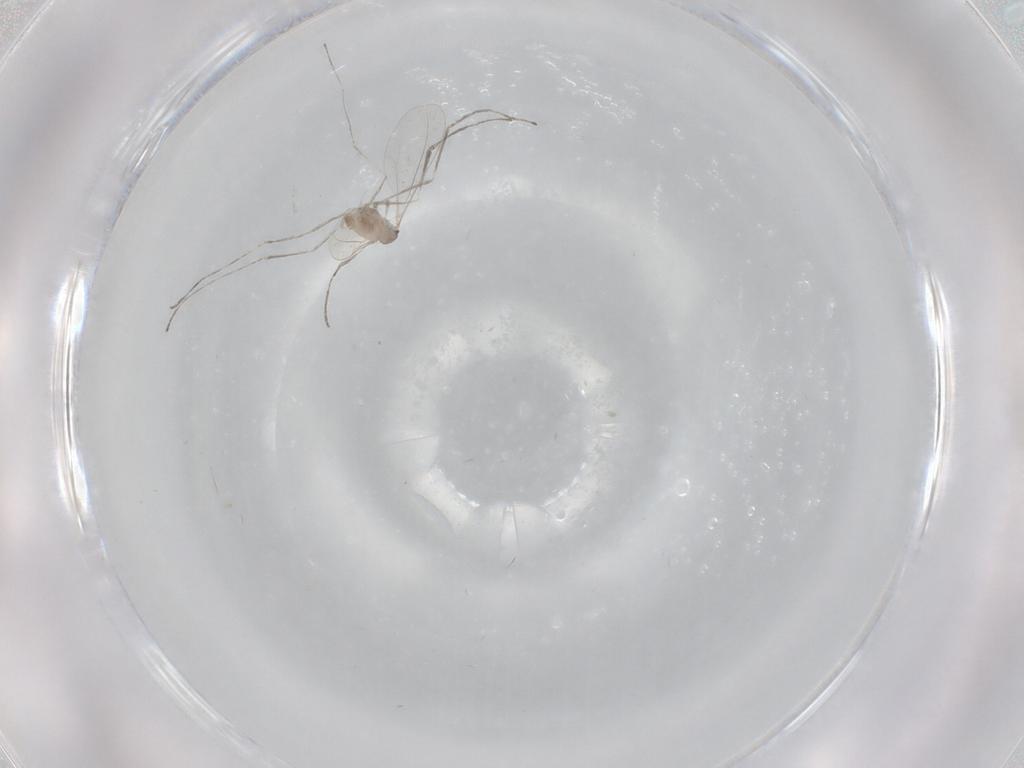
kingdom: Animalia
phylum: Arthropoda
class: Insecta
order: Diptera
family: Cecidomyiidae
